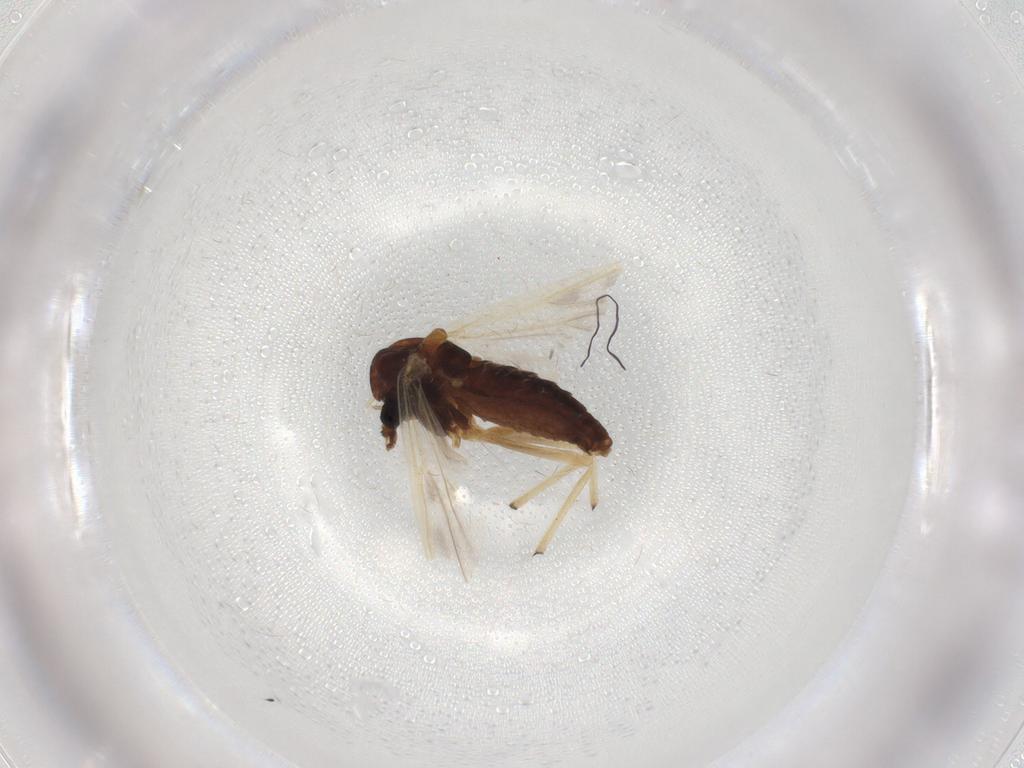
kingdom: Animalia
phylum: Arthropoda
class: Insecta
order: Diptera
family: Chironomidae
